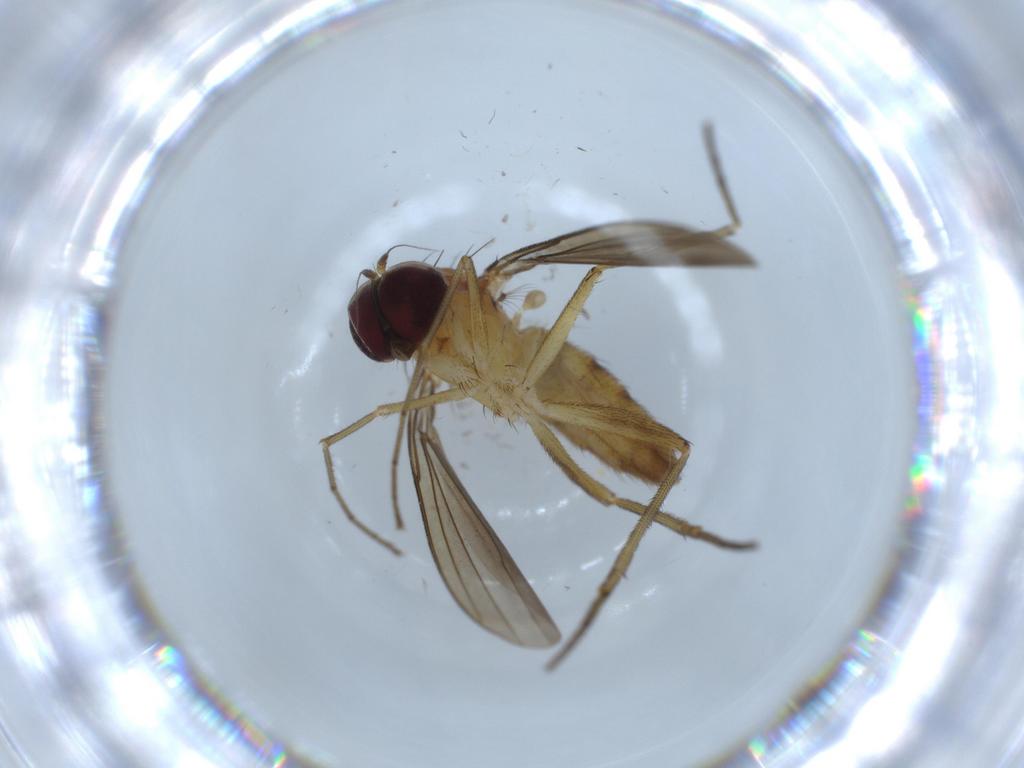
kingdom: Animalia
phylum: Arthropoda
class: Insecta
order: Diptera
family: Dolichopodidae
